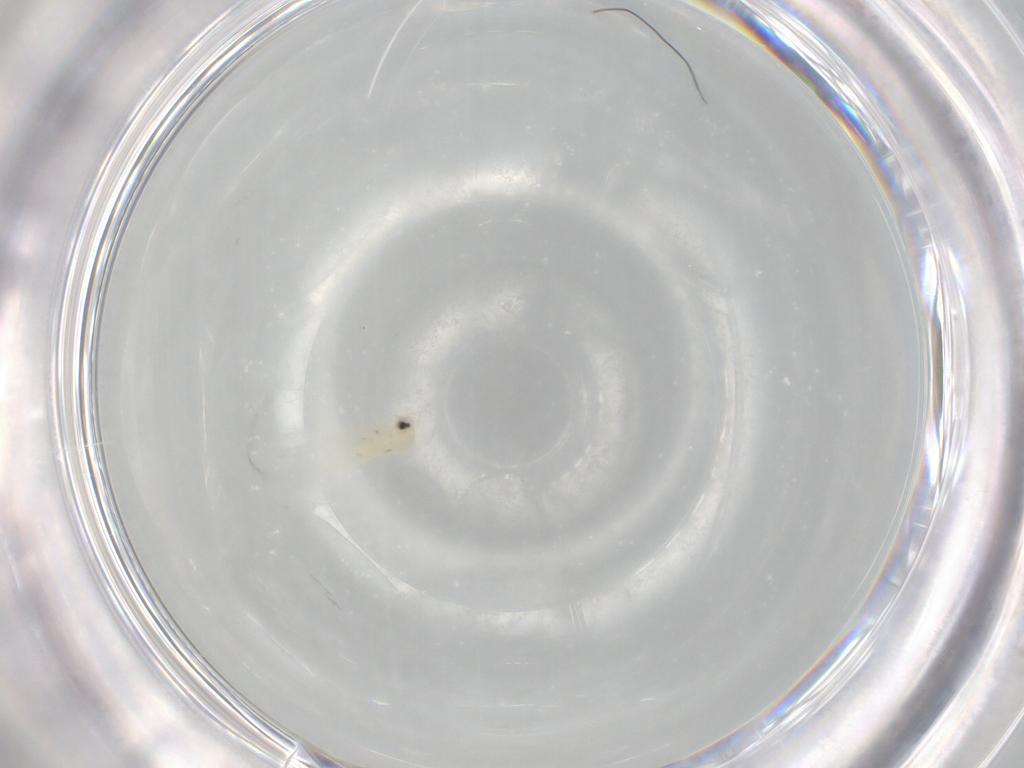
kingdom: Animalia
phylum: Arthropoda
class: Insecta
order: Hemiptera
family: Aleyrodidae
